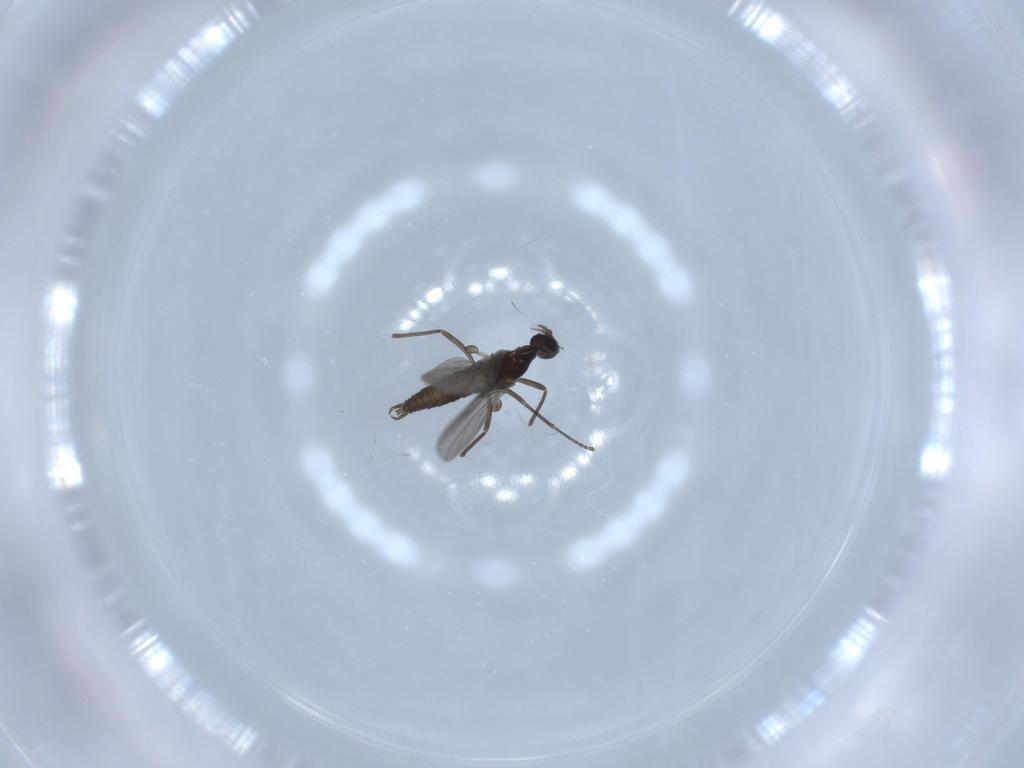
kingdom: Animalia
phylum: Arthropoda
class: Insecta
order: Diptera
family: Cecidomyiidae
